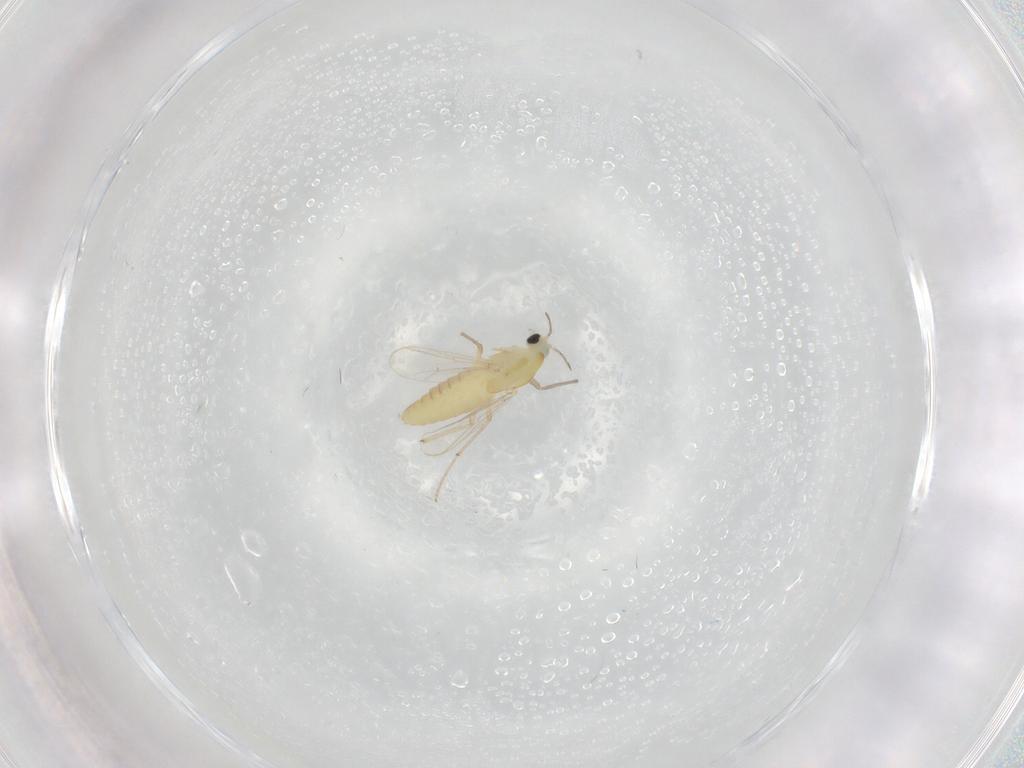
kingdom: Animalia
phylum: Arthropoda
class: Insecta
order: Diptera
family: Chironomidae
